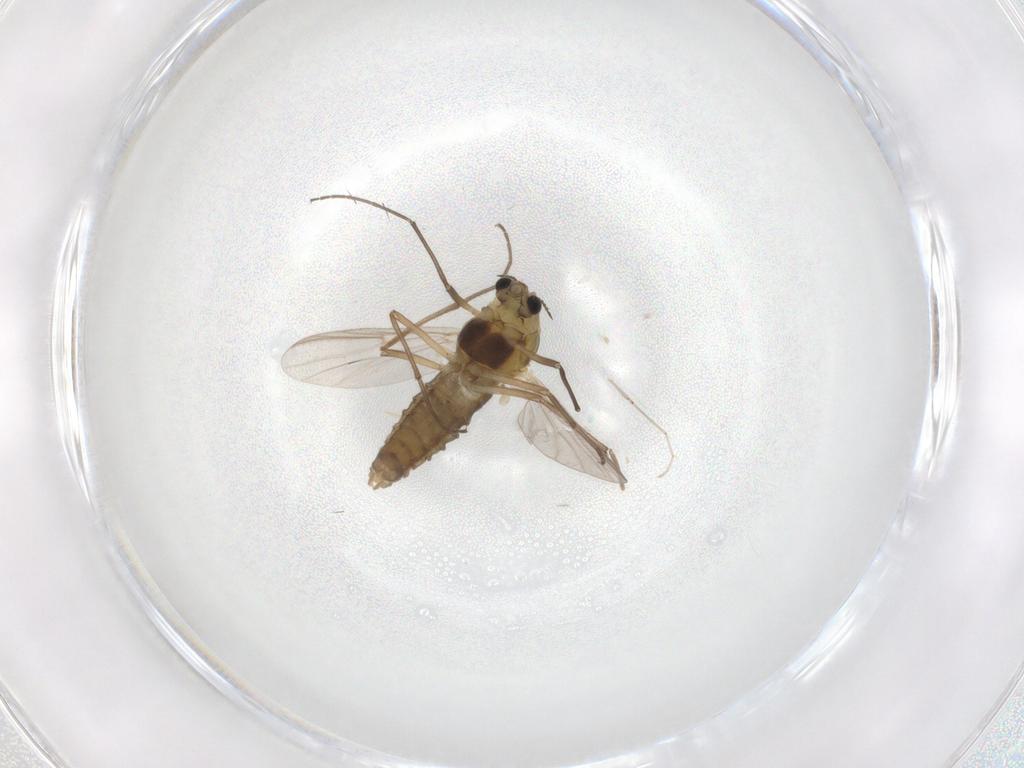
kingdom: Animalia
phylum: Arthropoda
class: Insecta
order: Diptera
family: Chironomidae
